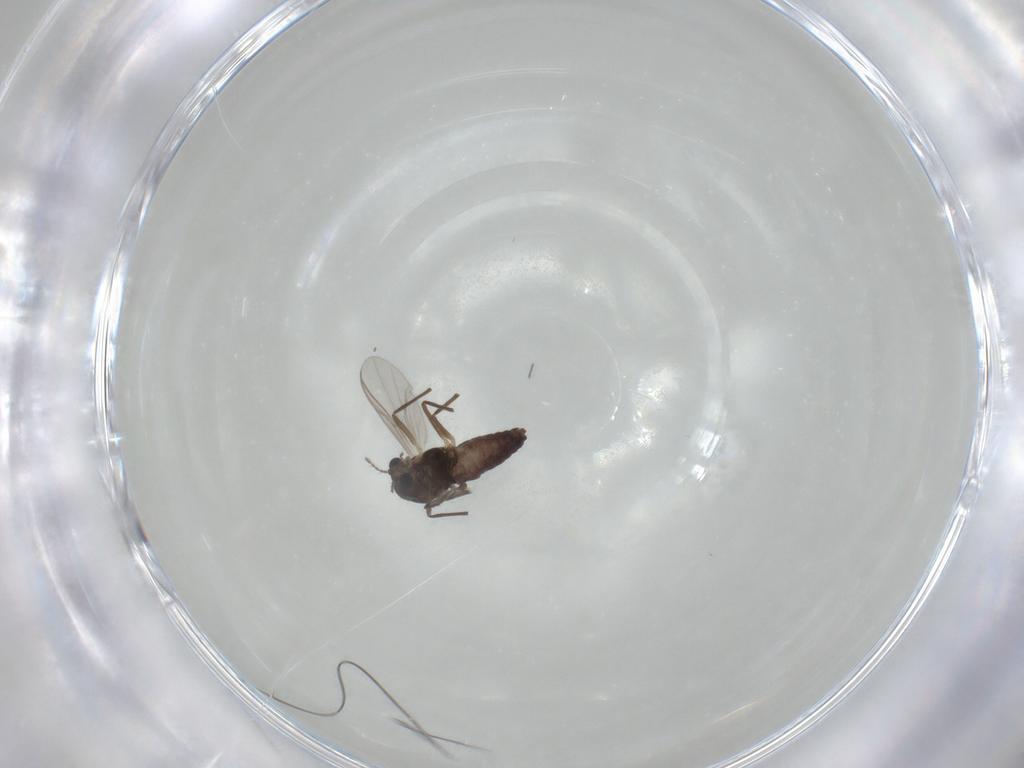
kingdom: Animalia
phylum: Arthropoda
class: Insecta
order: Diptera
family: Chironomidae
